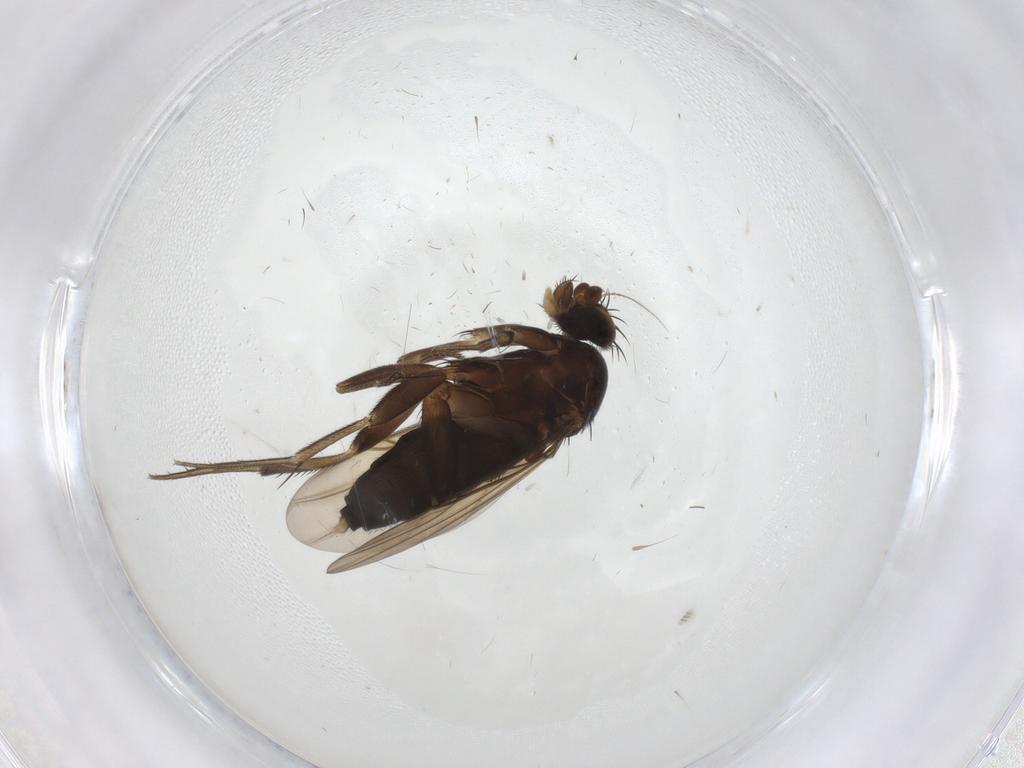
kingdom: Animalia
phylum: Arthropoda
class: Insecta
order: Diptera
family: Phoridae
